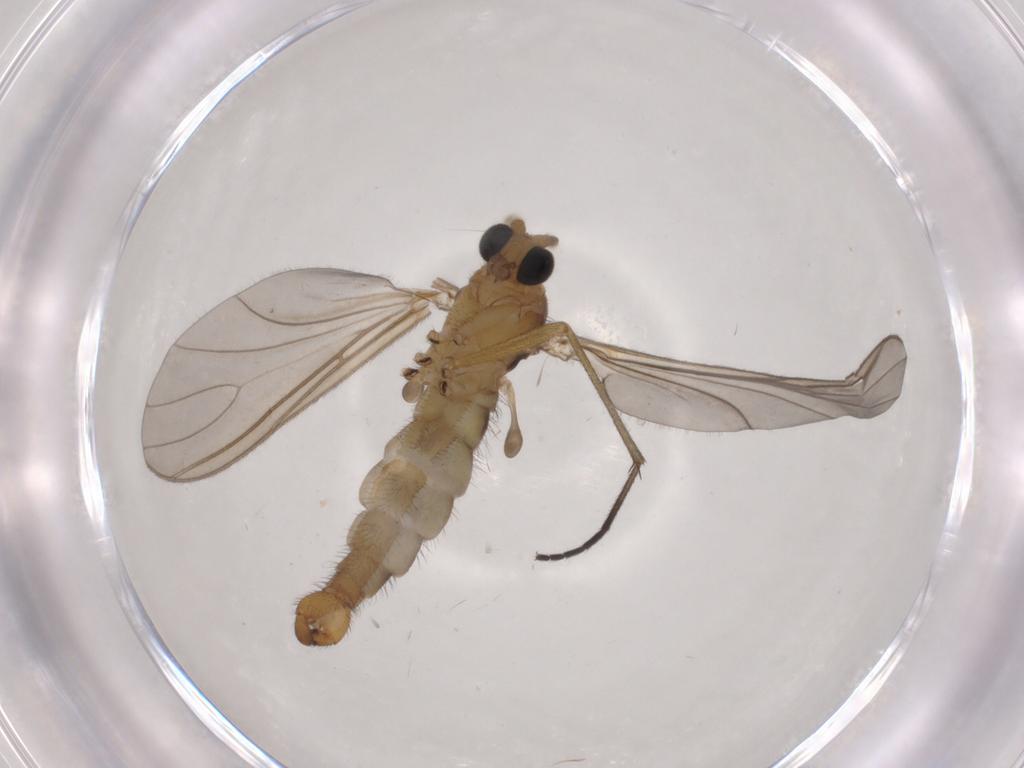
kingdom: Animalia
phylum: Arthropoda
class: Insecta
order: Diptera
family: Sciaridae
